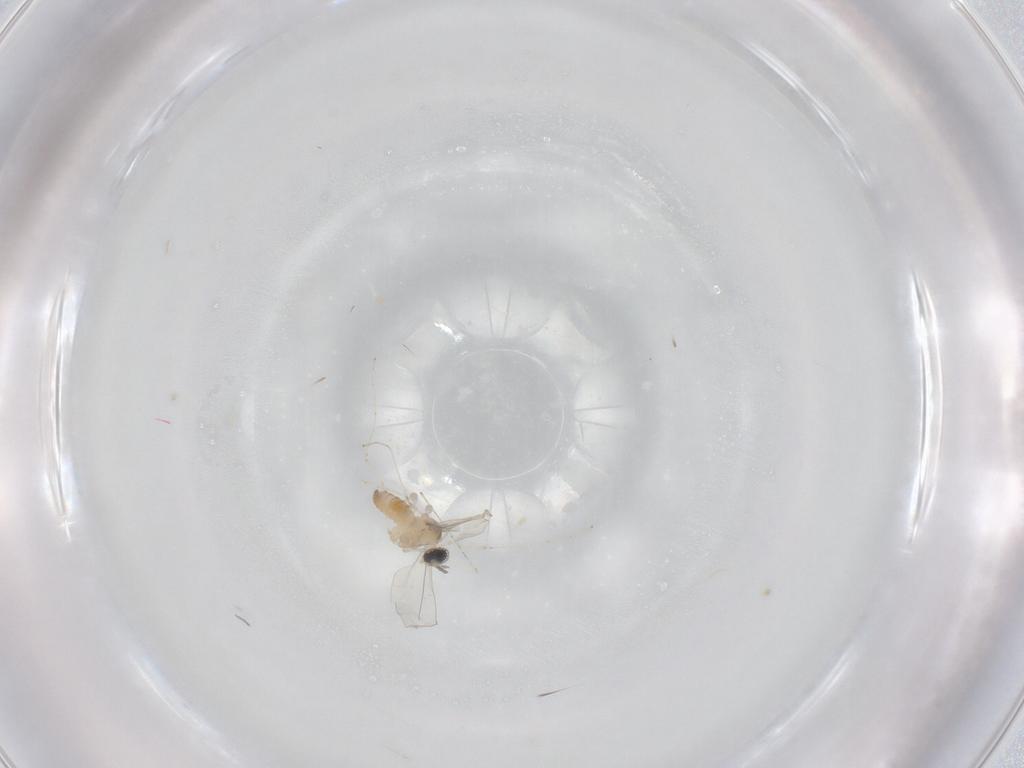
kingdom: Animalia
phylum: Arthropoda
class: Insecta
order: Diptera
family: Cecidomyiidae
